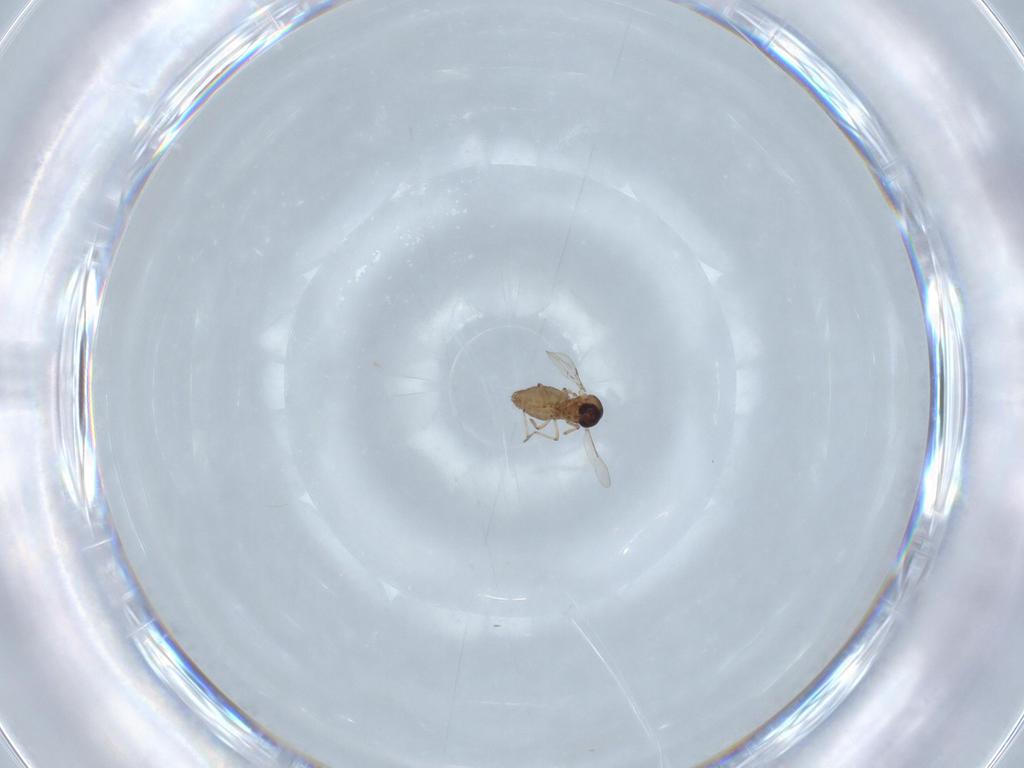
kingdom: Animalia
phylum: Arthropoda
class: Insecta
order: Diptera
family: Ceratopogonidae
